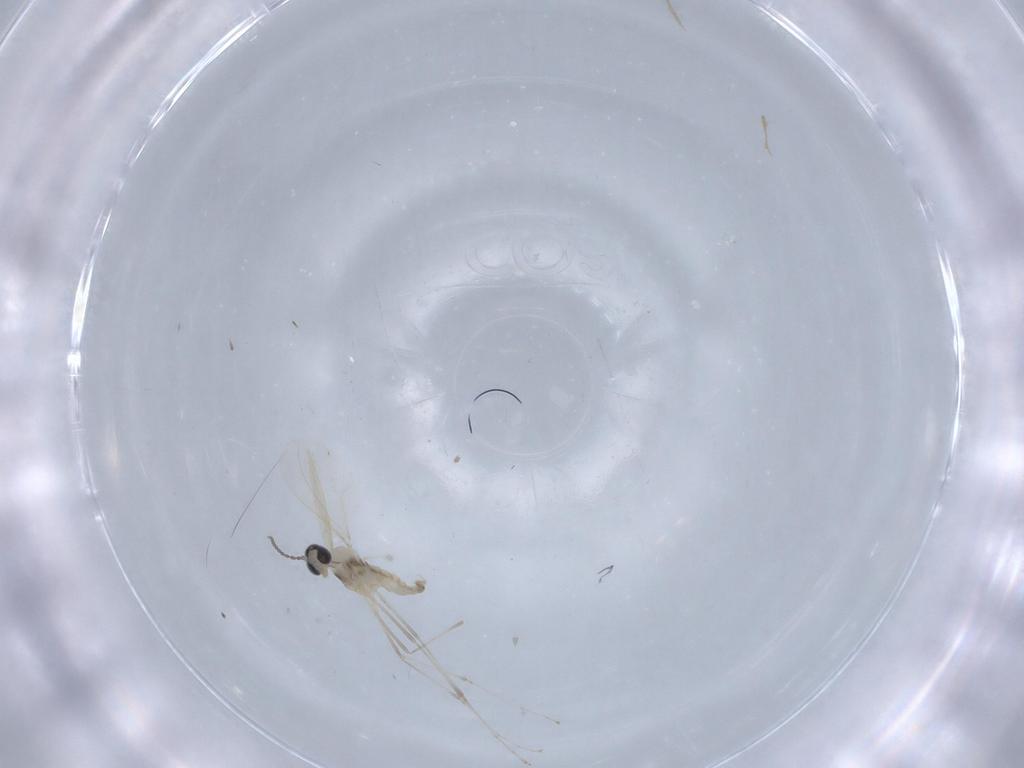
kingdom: Animalia
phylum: Arthropoda
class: Insecta
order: Diptera
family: Cecidomyiidae
